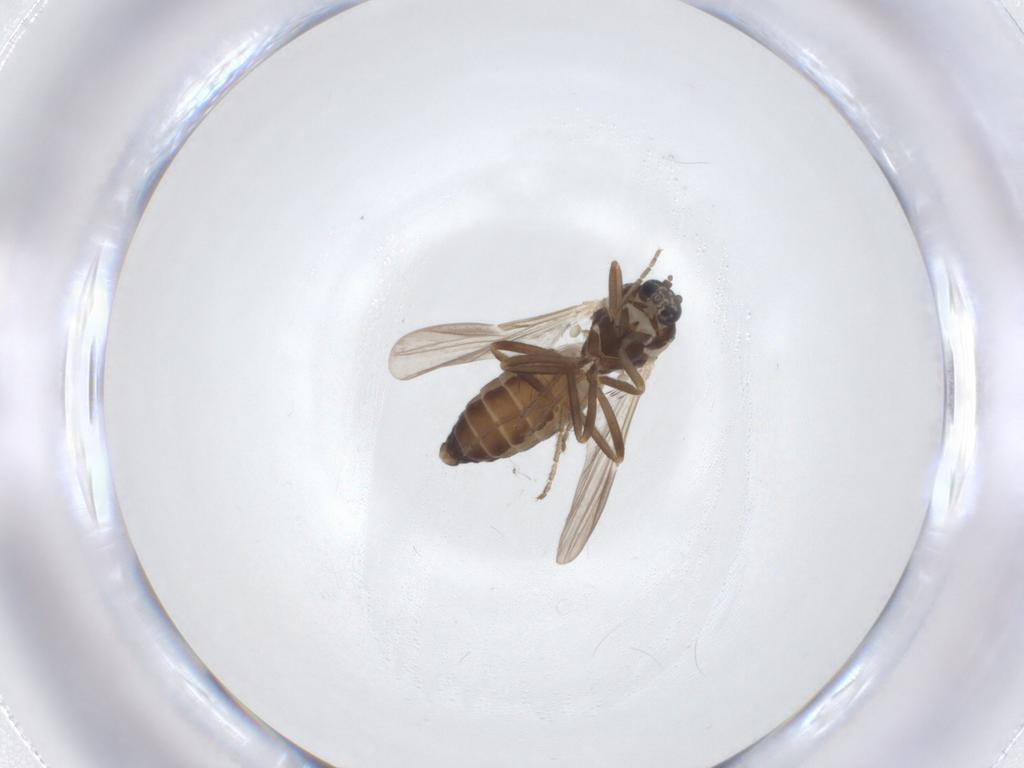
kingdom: Animalia
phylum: Arthropoda
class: Insecta
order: Diptera
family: Ceratopogonidae
